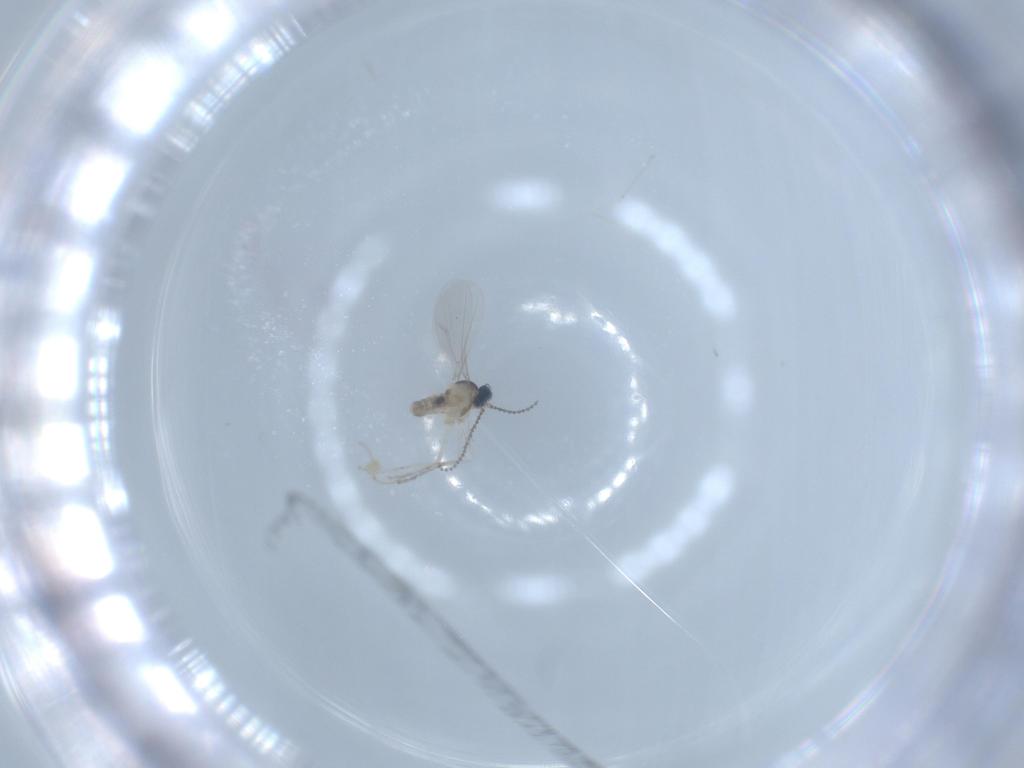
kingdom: Animalia
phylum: Arthropoda
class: Insecta
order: Diptera
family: Cecidomyiidae
